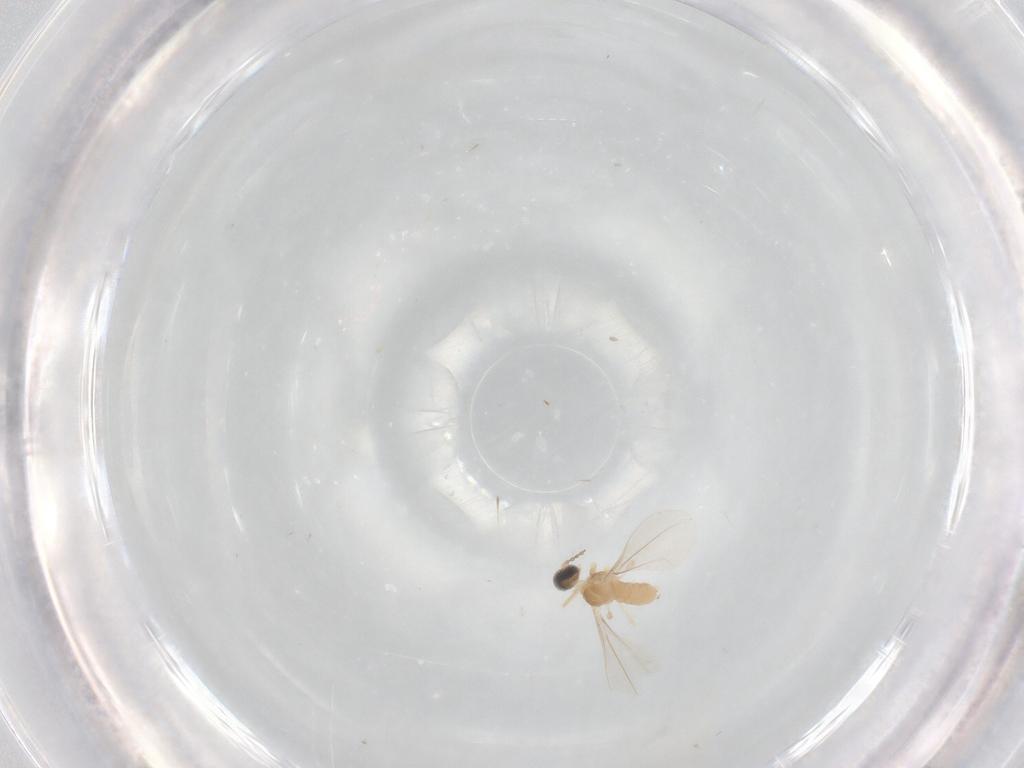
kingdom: Animalia
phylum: Arthropoda
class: Insecta
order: Diptera
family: Cecidomyiidae
